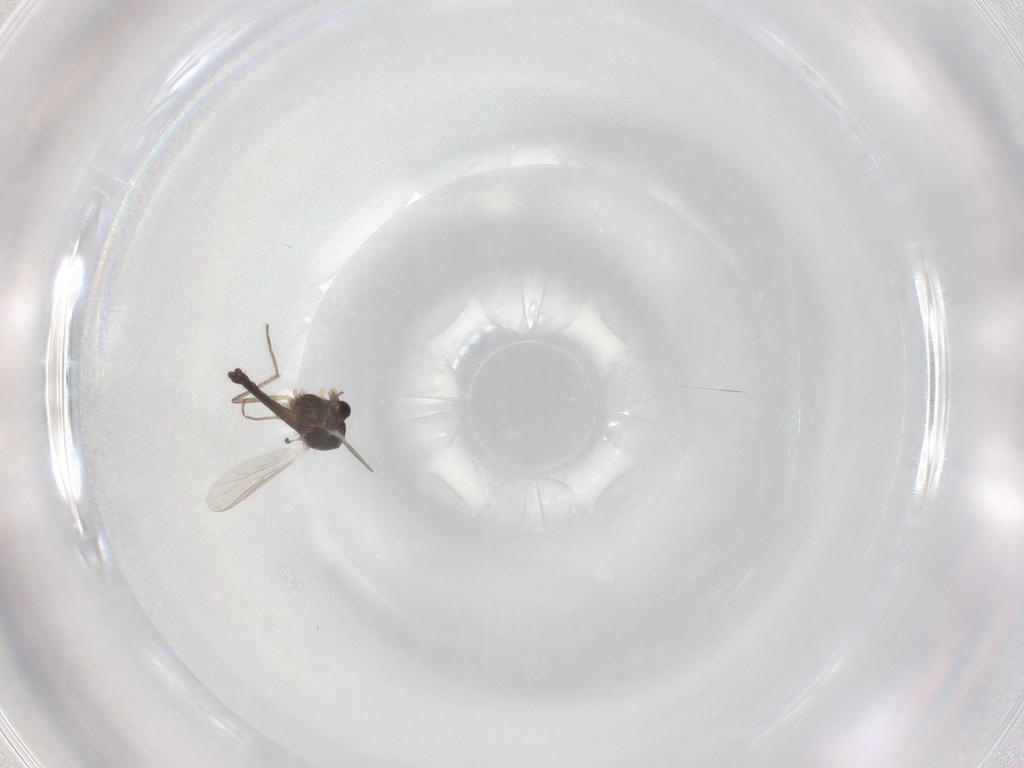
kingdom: Animalia
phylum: Arthropoda
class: Insecta
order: Diptera
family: Chironomidae
